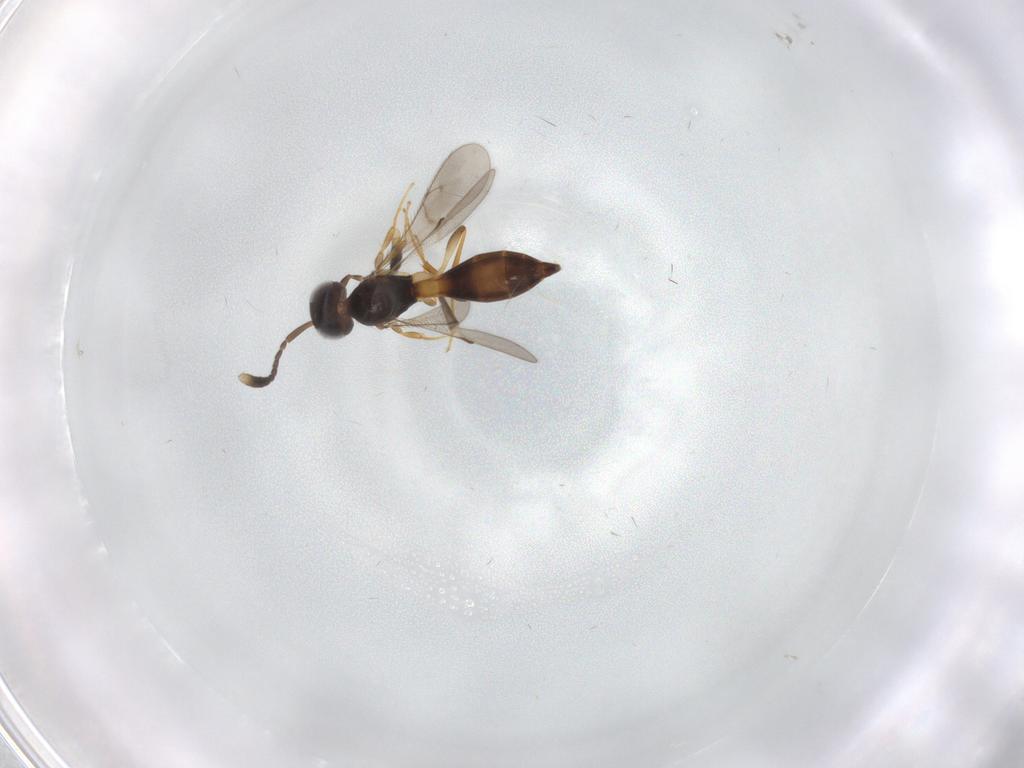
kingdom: Animalia
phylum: Arthropoda
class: Insecta
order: Hymenoptera
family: Scelionidae
